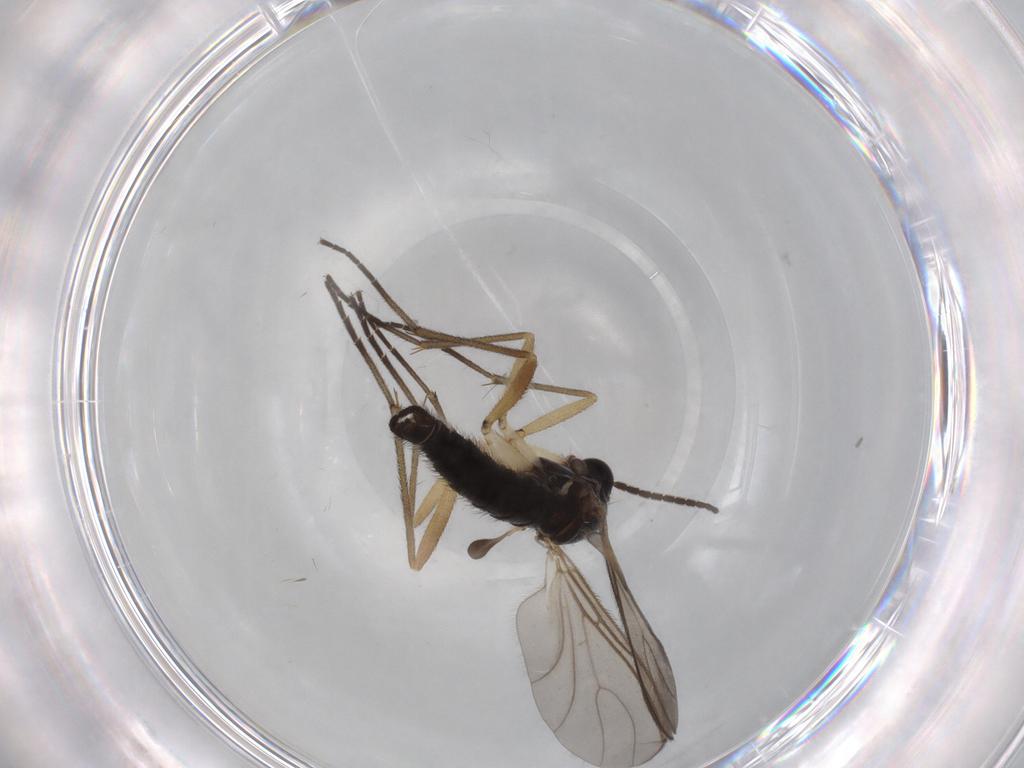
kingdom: Animalia
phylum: Arthropoda
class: Insecta
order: Diptera
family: Sciaridae
